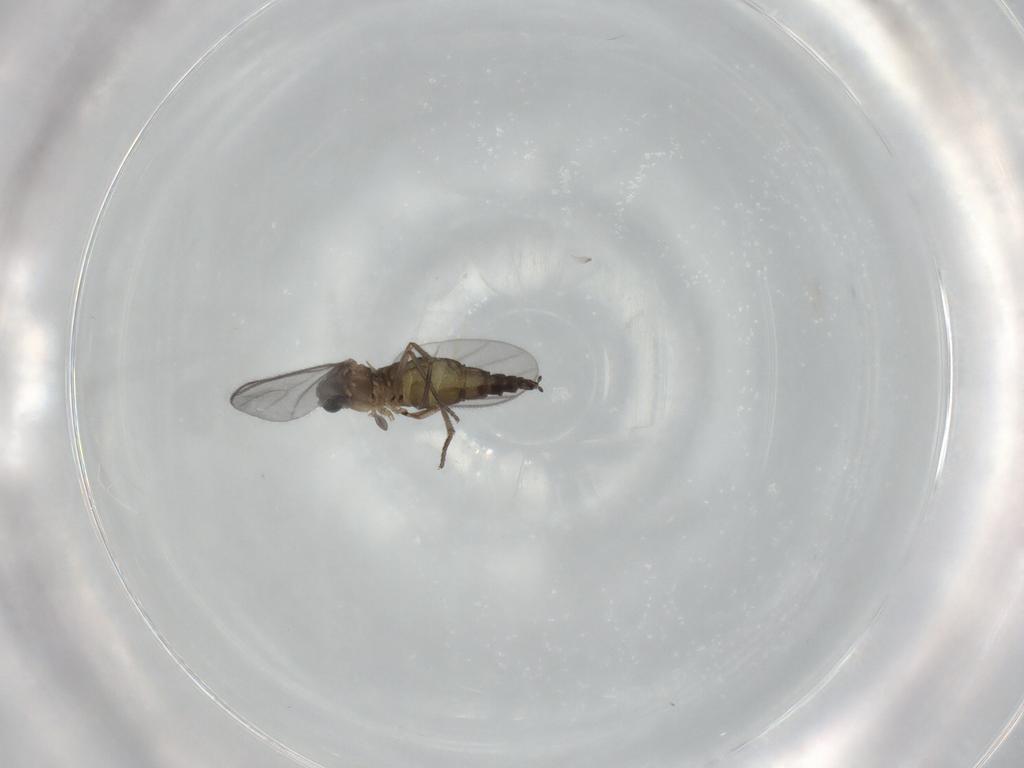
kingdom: Animalia
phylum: Arthropoda
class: Insecta
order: Diptera
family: Sciaridae
